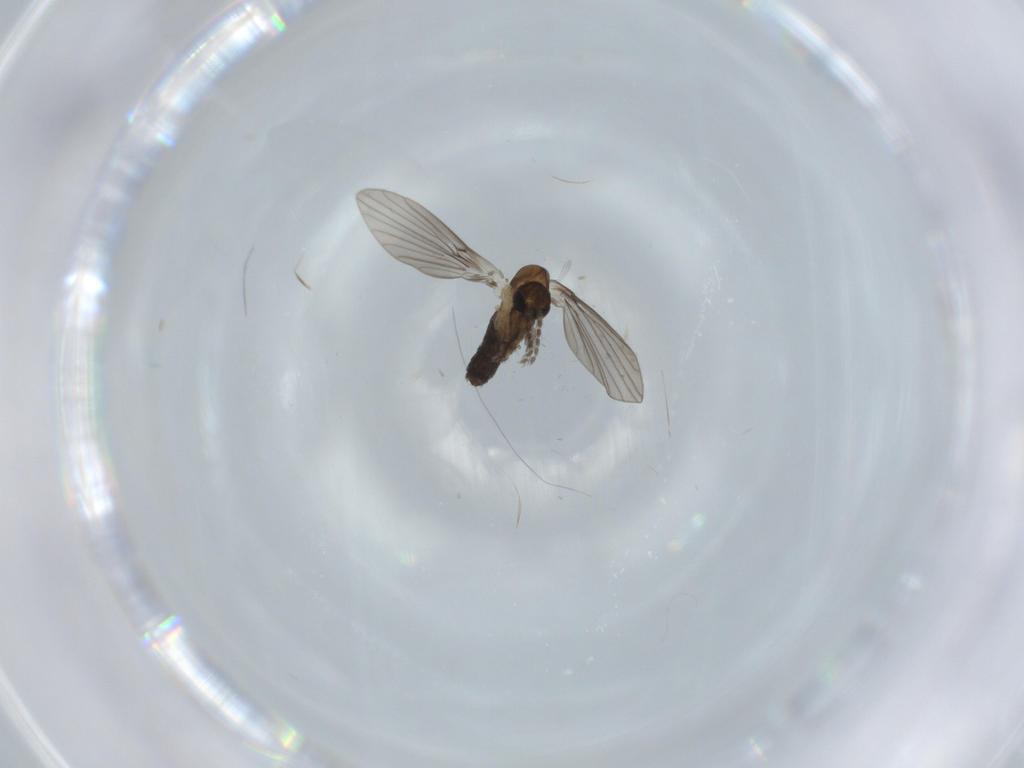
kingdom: Animalia
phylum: Arthropoda
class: Insecta
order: Diptera
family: Psychodidae
